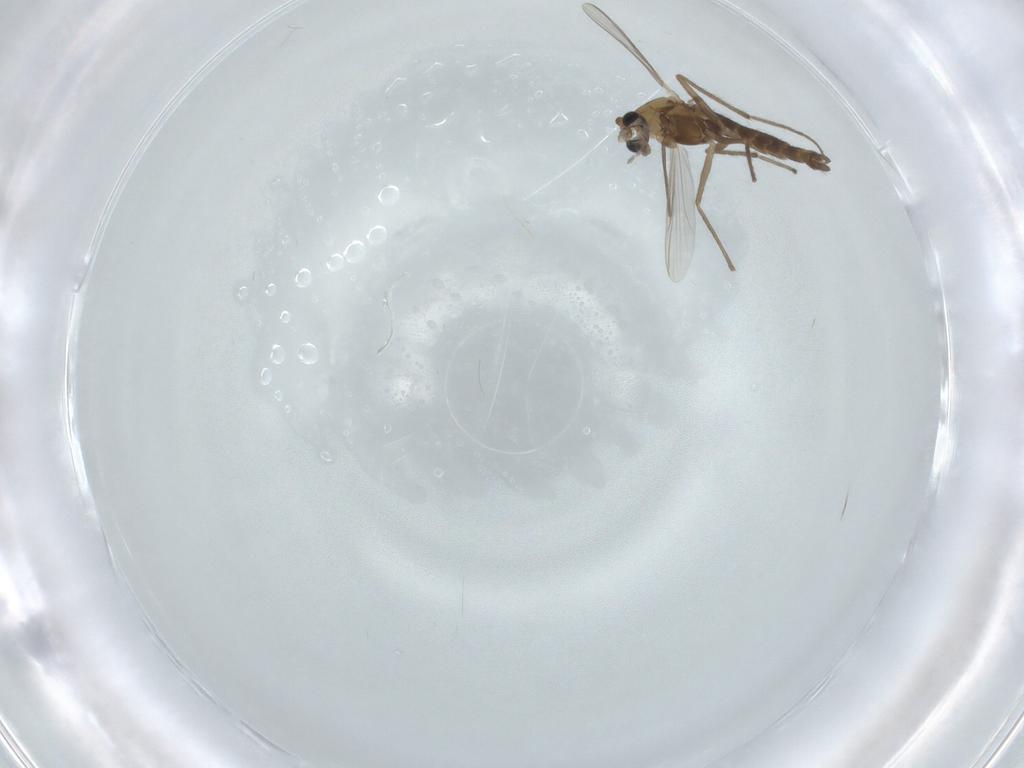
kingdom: Animalia
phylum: Arthropoda
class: Insecta
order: Diptera
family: Chironomidae
